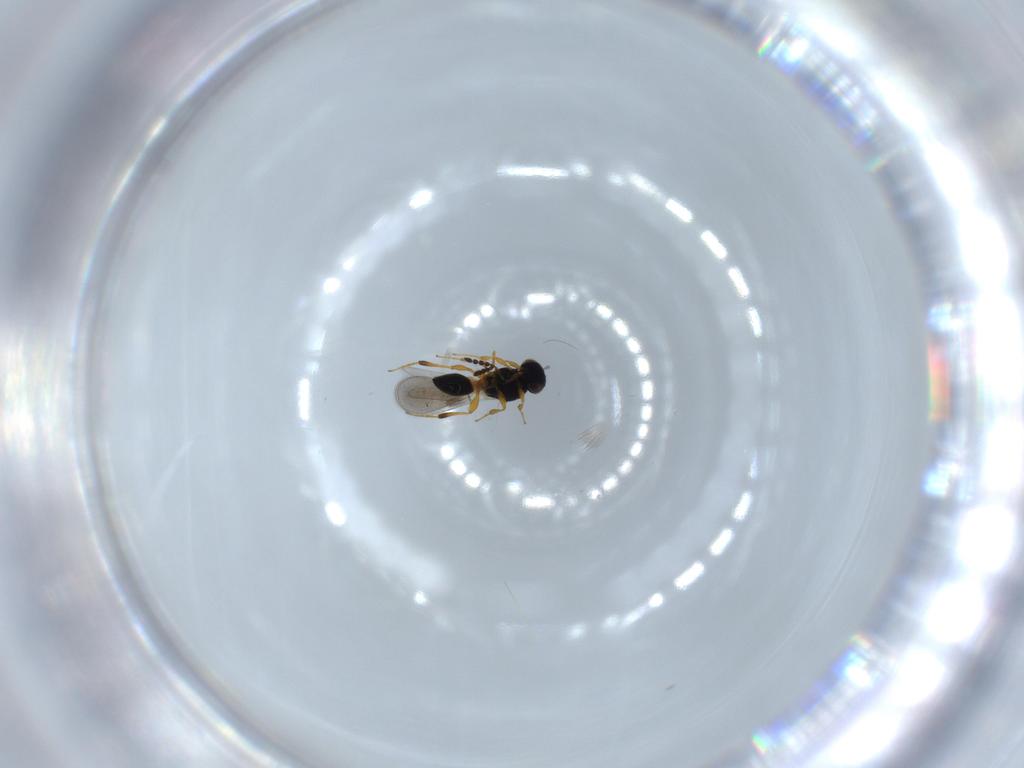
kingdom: Animalia
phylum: Arthropoda
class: Insecta
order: Hymenoptera
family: Platygastridae
